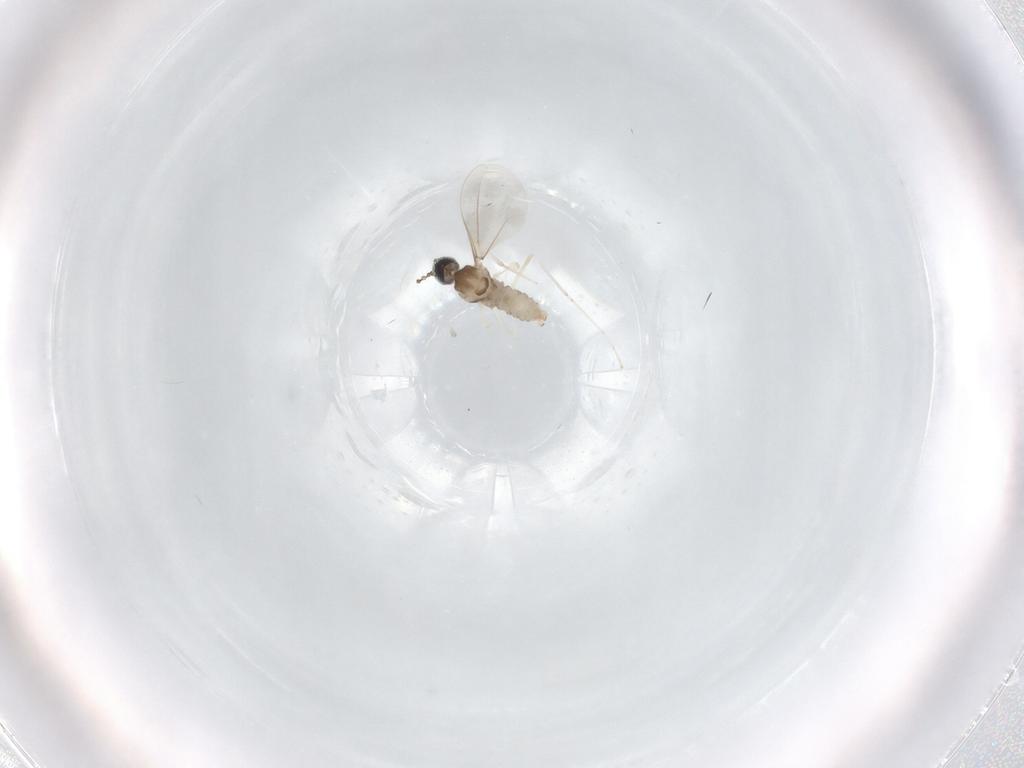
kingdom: Animalia
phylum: Arthropoda
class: Insecta
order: Diptera
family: Cecidomyiidae
